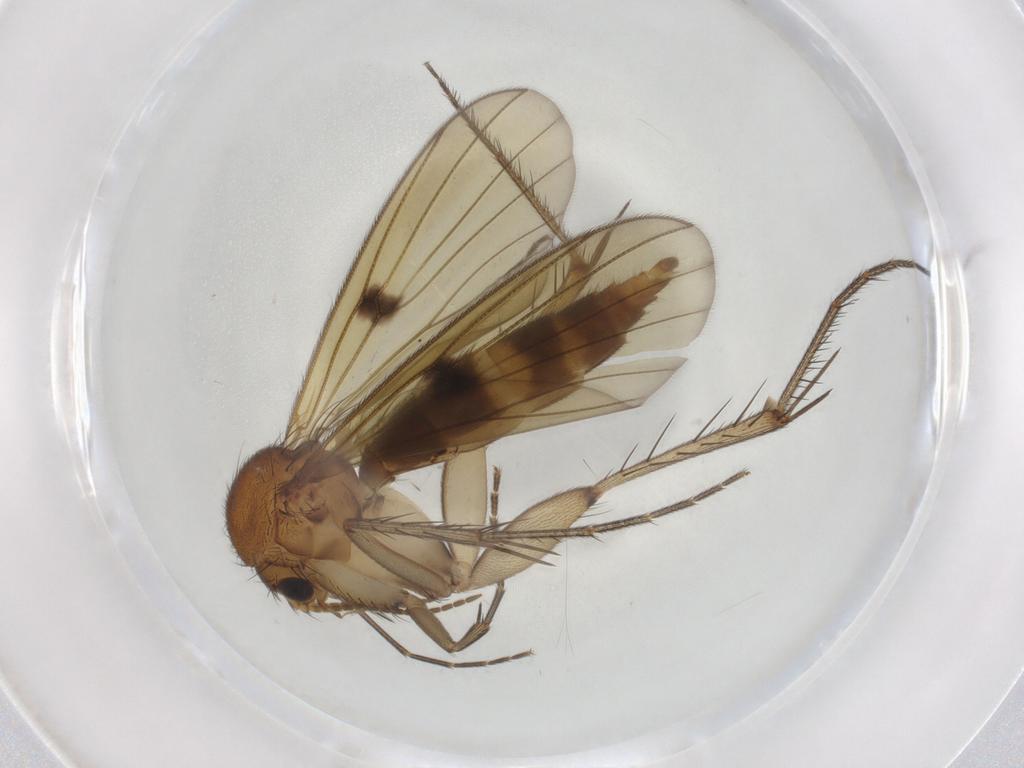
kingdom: Animalia
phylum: Arthropoda
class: Insecta
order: Diptera
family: Mycetophilidae
